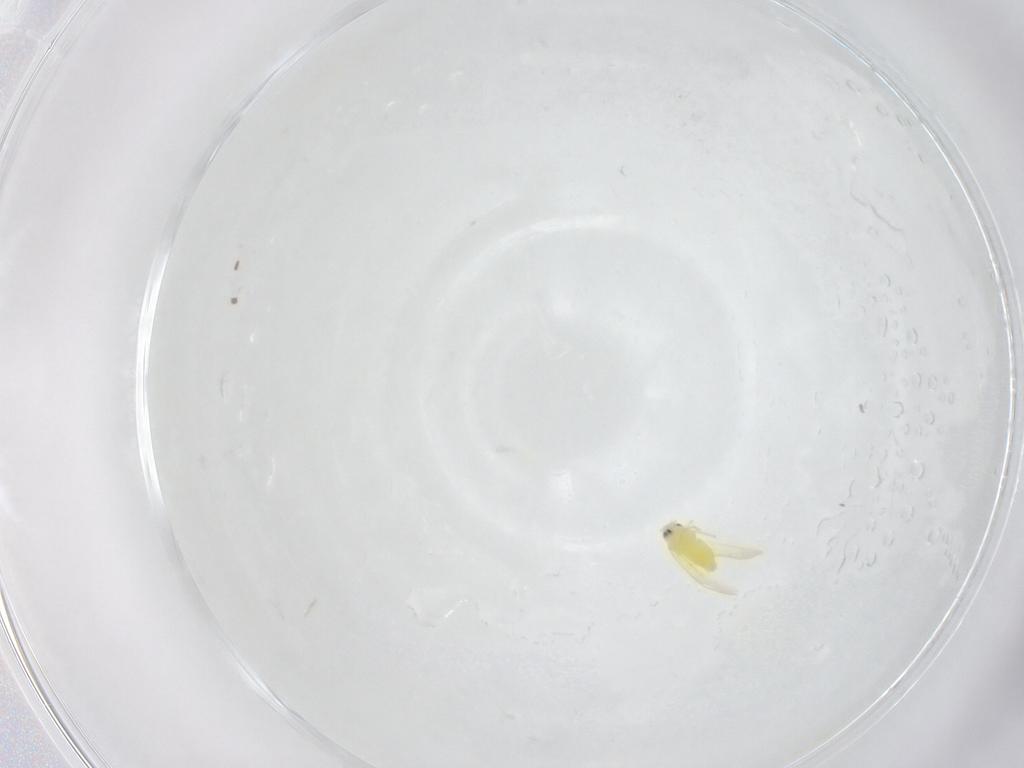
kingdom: Animalia
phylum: Arthropoda
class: Insecta
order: Hemiptera
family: Aleyrodidae
